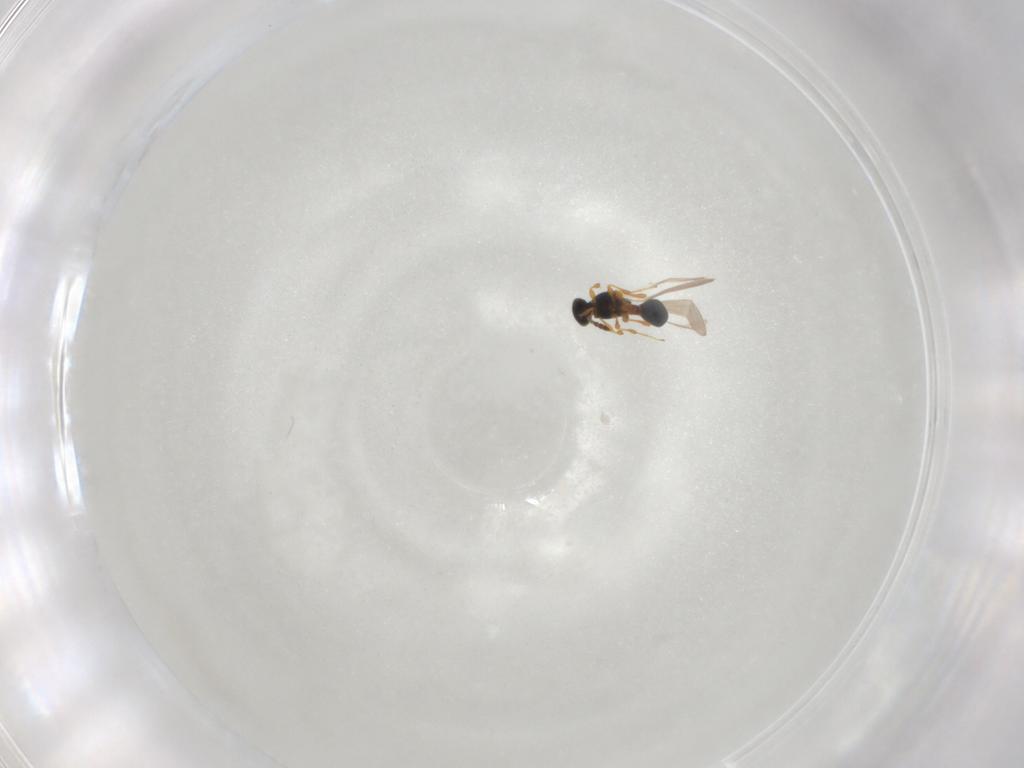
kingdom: Animalia
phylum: Arthropoda
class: Insecta
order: Hymenoptera
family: Platygastridae
